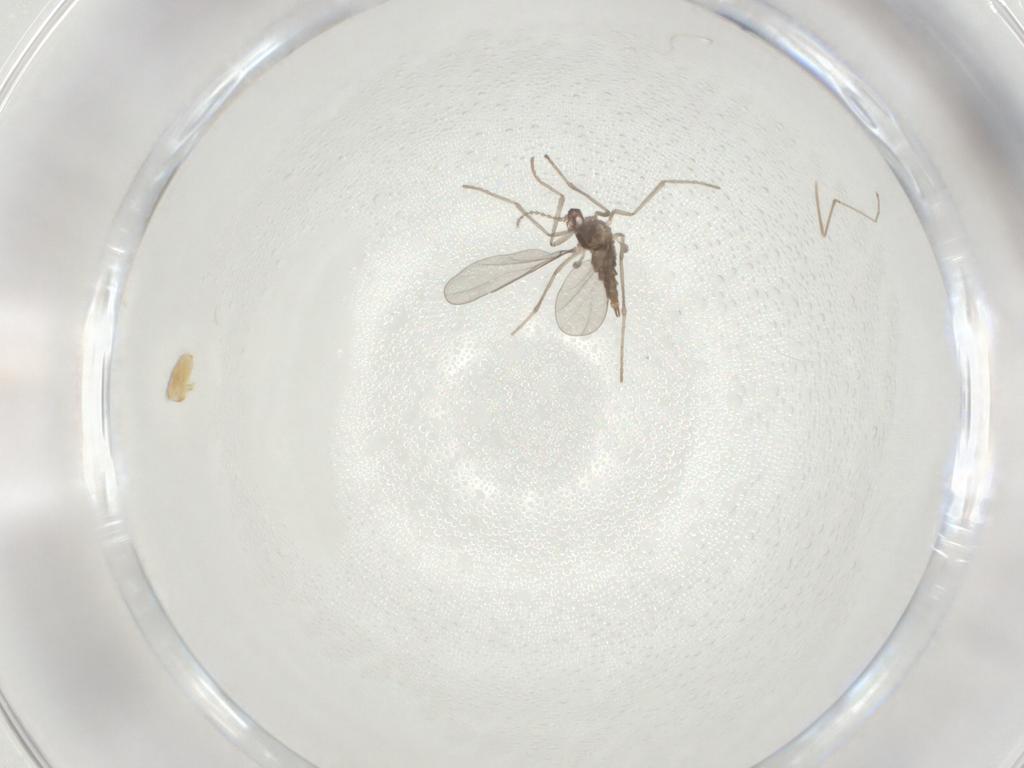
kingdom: Animalia
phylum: Arthropoda
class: Insecta
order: Diptera
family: Cecidomyiidae
